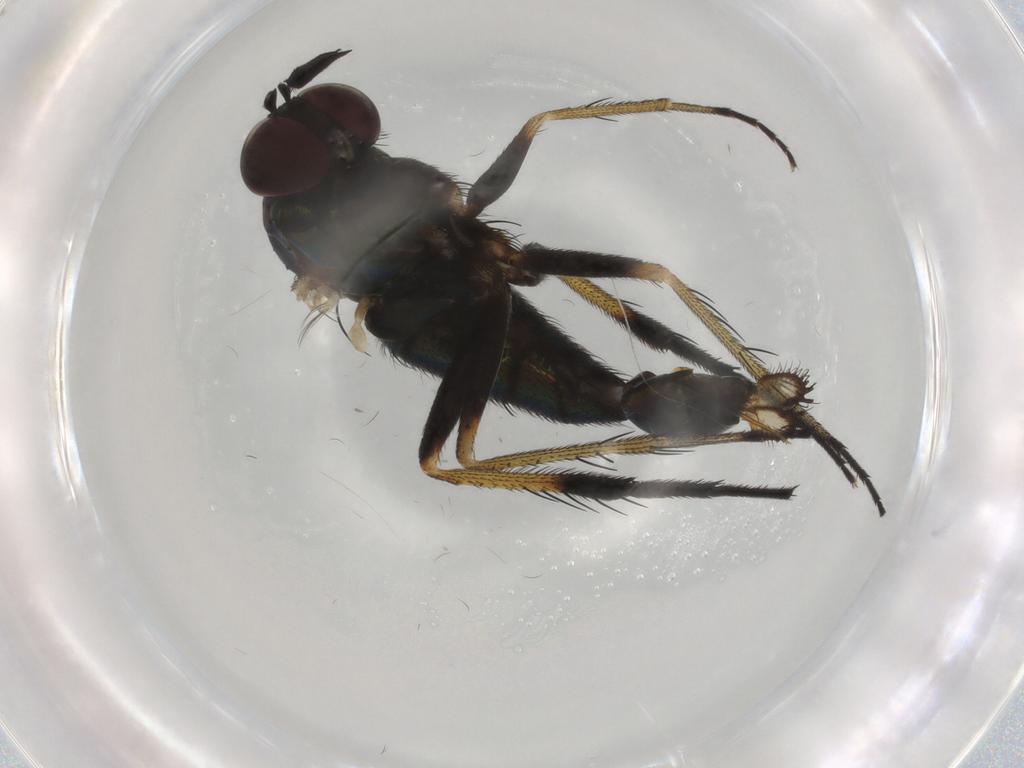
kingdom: Animalia
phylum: Arthropoda
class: Insecta
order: Diptera
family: Dolichopodidae
